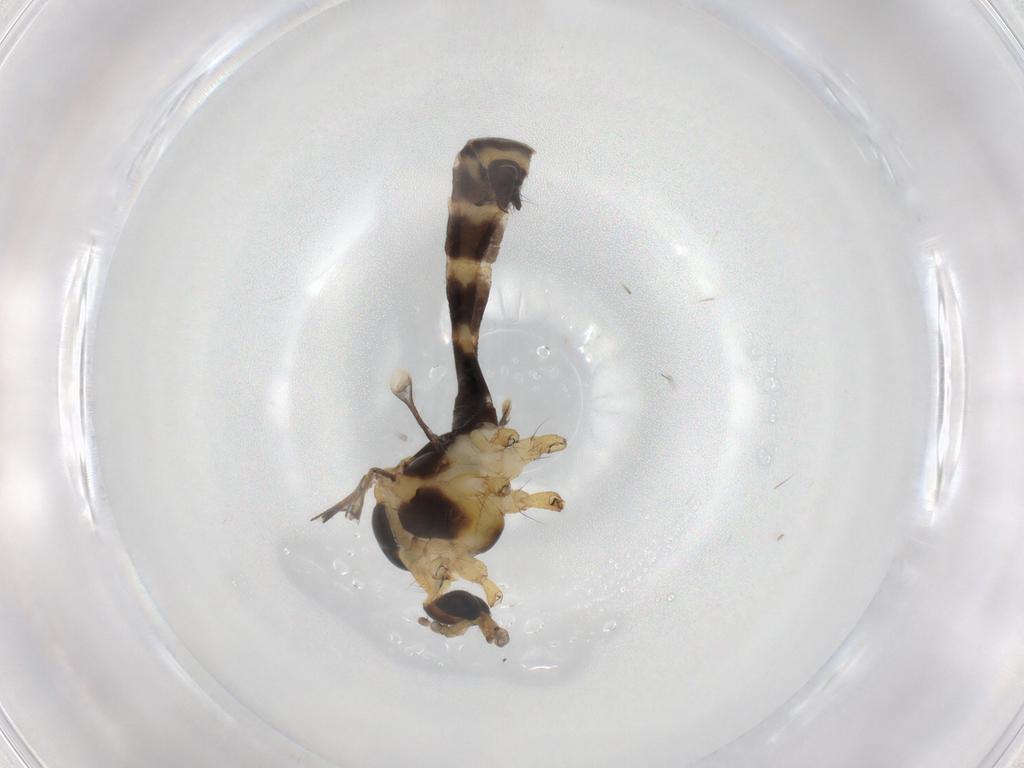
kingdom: Animalia
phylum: Arthropoda
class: Insecta
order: Diptera
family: Limoniidae
